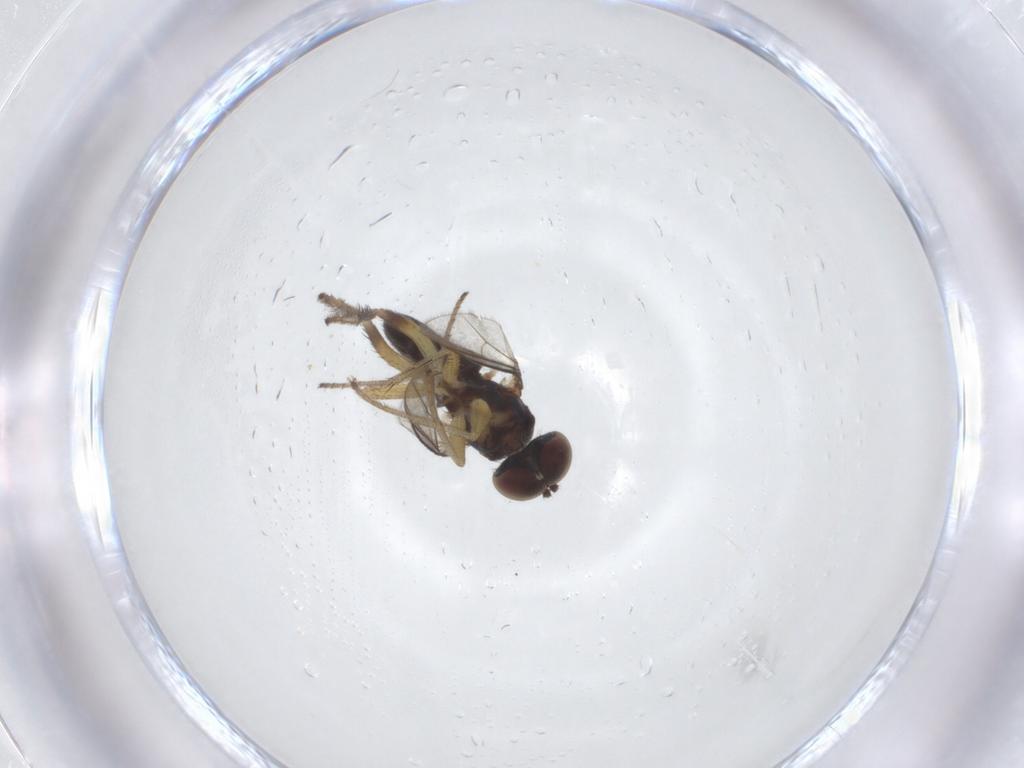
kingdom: Animalia
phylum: Arthropoda
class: Insecta
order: Diptera
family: Dolichopodidae
